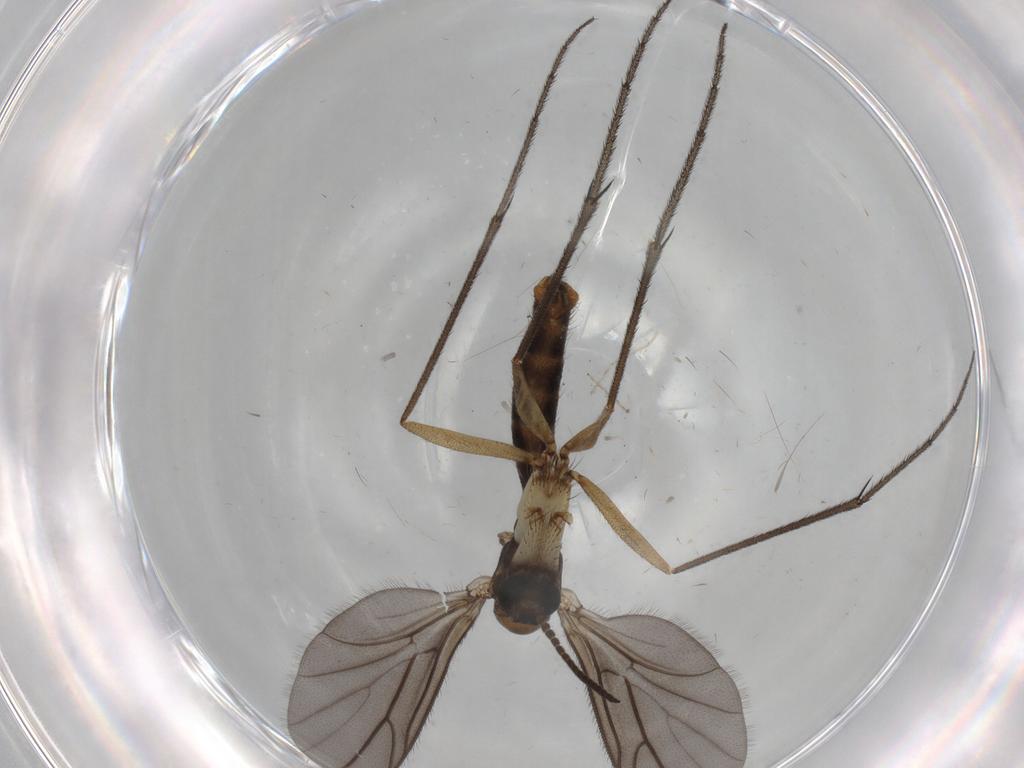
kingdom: Animalia
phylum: Arthropoda
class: Insecta
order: Diptera
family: Ditomyiidae
